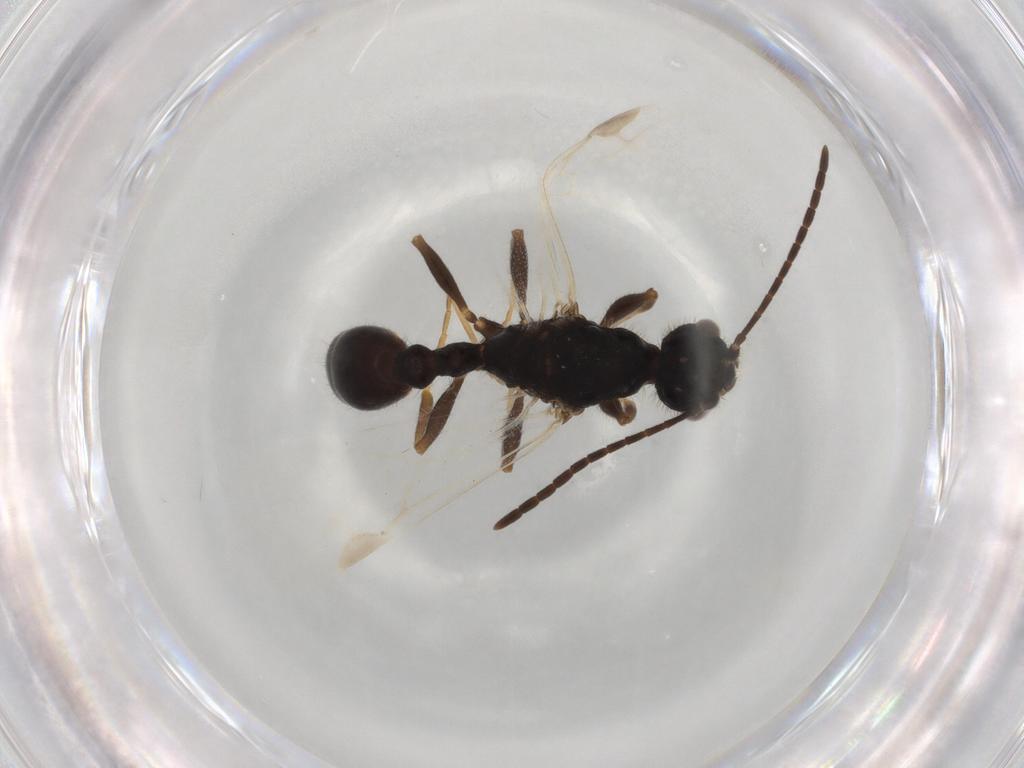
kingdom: Animalia
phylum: Arthropoda
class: Insecta
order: Hymenoptera
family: Formicidae
